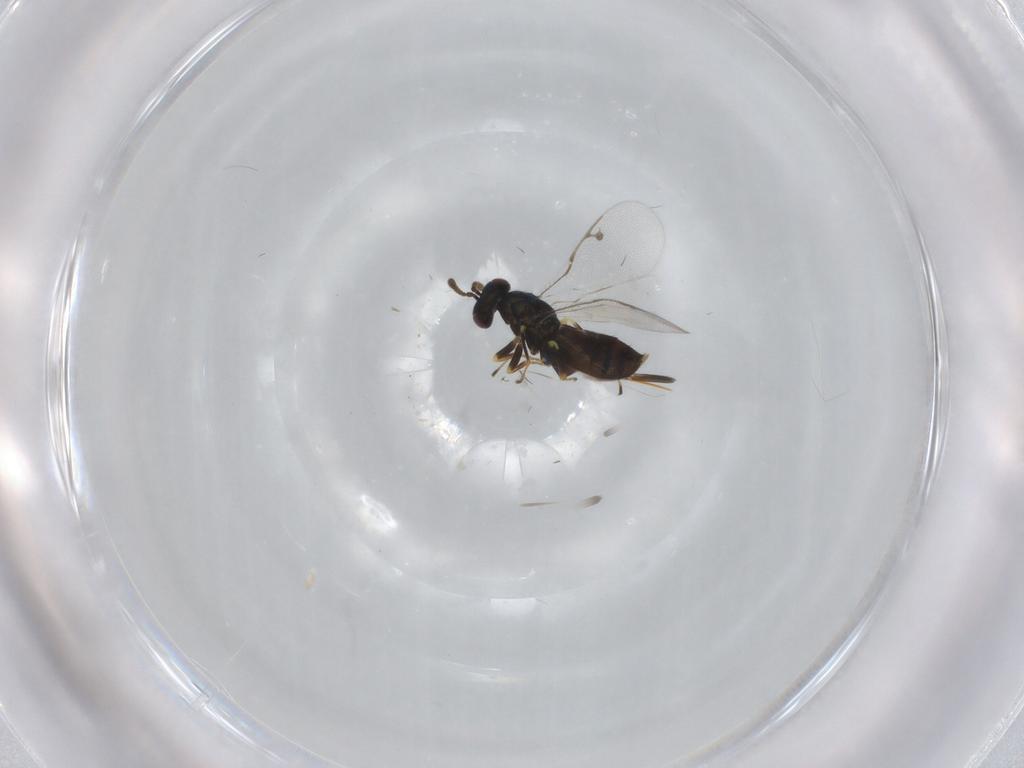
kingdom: Animalia
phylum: Arthropoda
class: Insecta
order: Hymenoptera
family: Pirenidae
